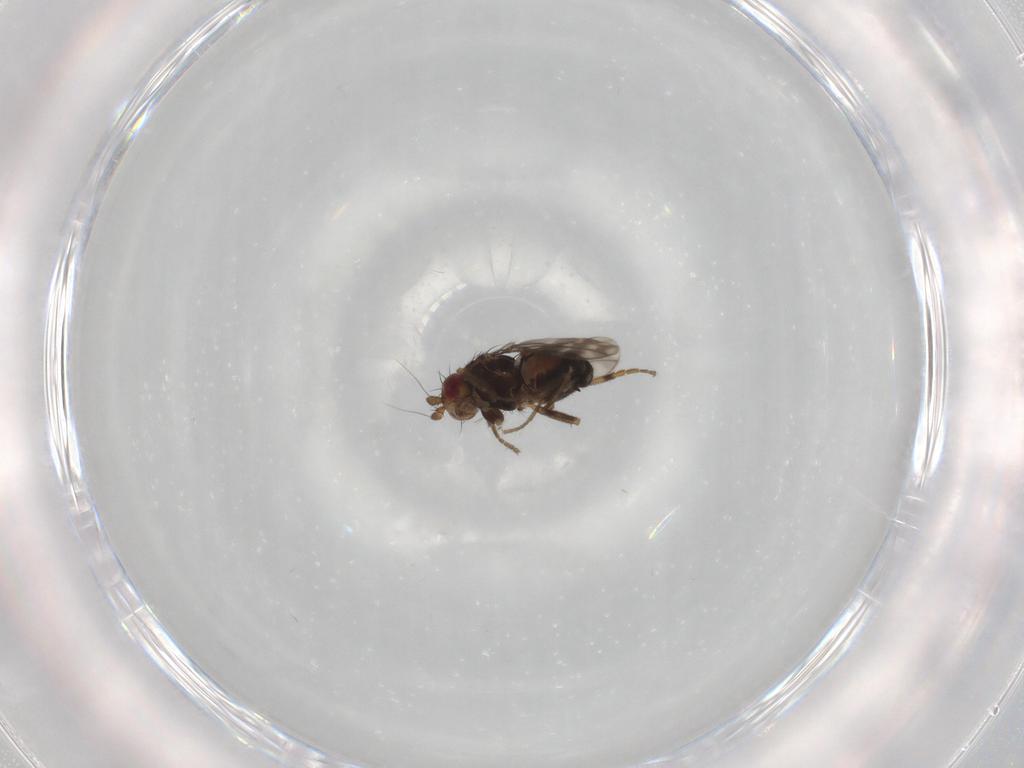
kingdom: Animalia
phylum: Arthropoda
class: Insecta
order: Diptera
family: Sphaeroceridae
